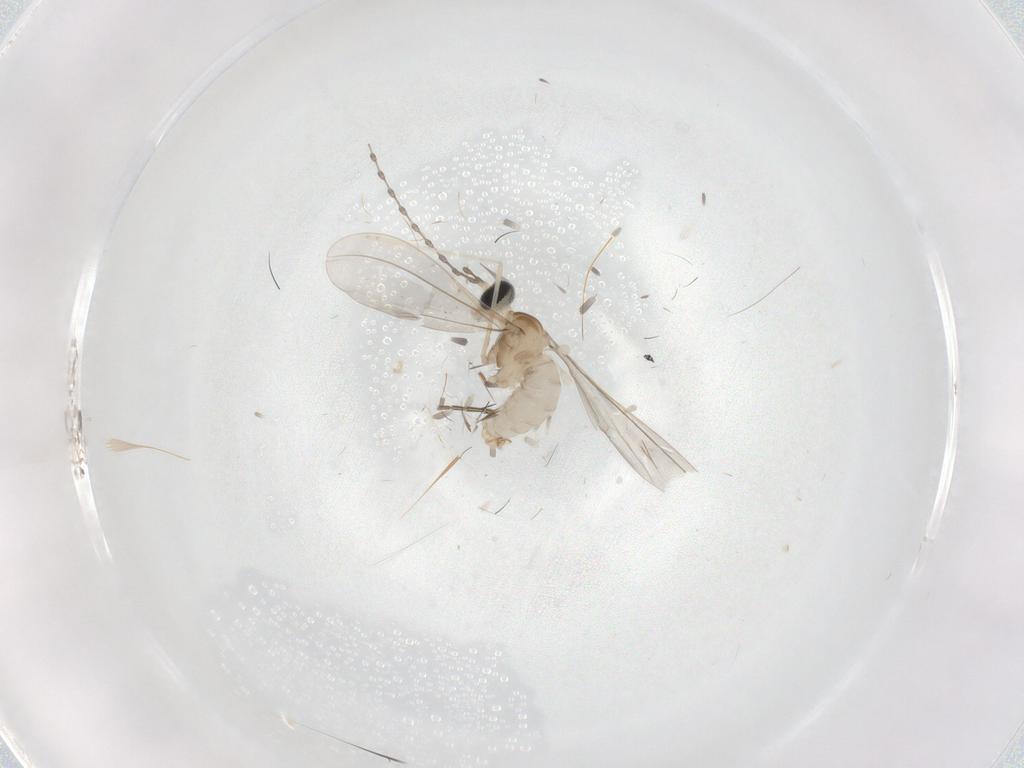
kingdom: Animalia
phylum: Arthropoda
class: Insecta
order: Diptera
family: Cecidomyiidae
